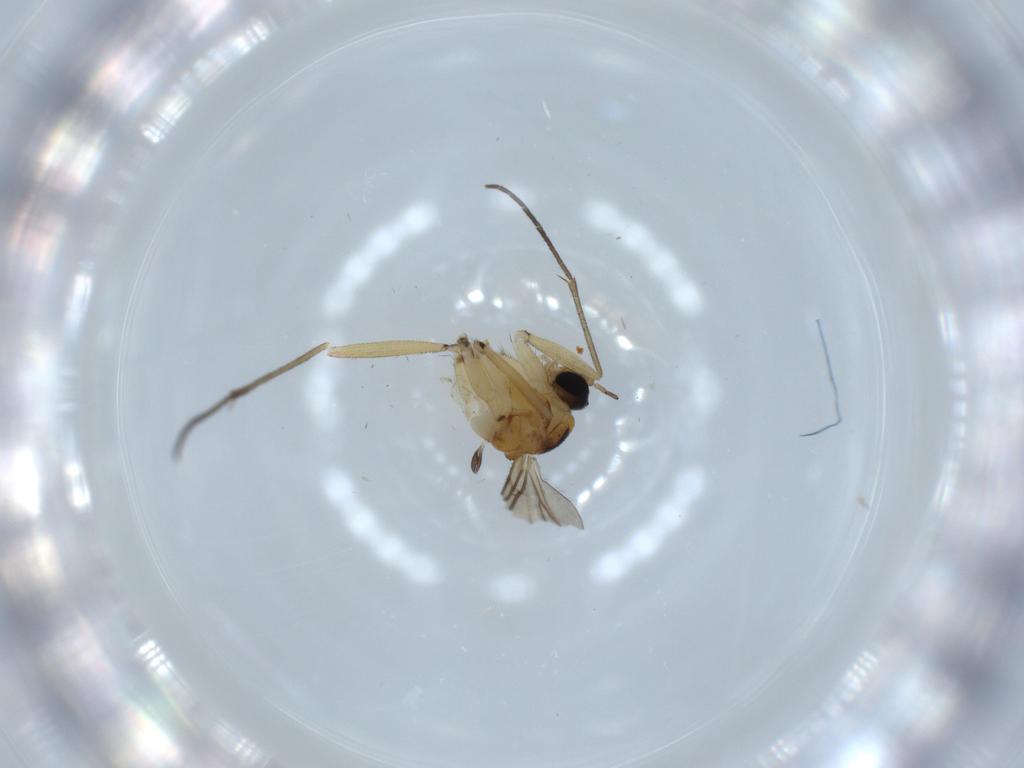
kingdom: Animalia
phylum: Arthropoda
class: Insecta
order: Diptera
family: Sciaridae
